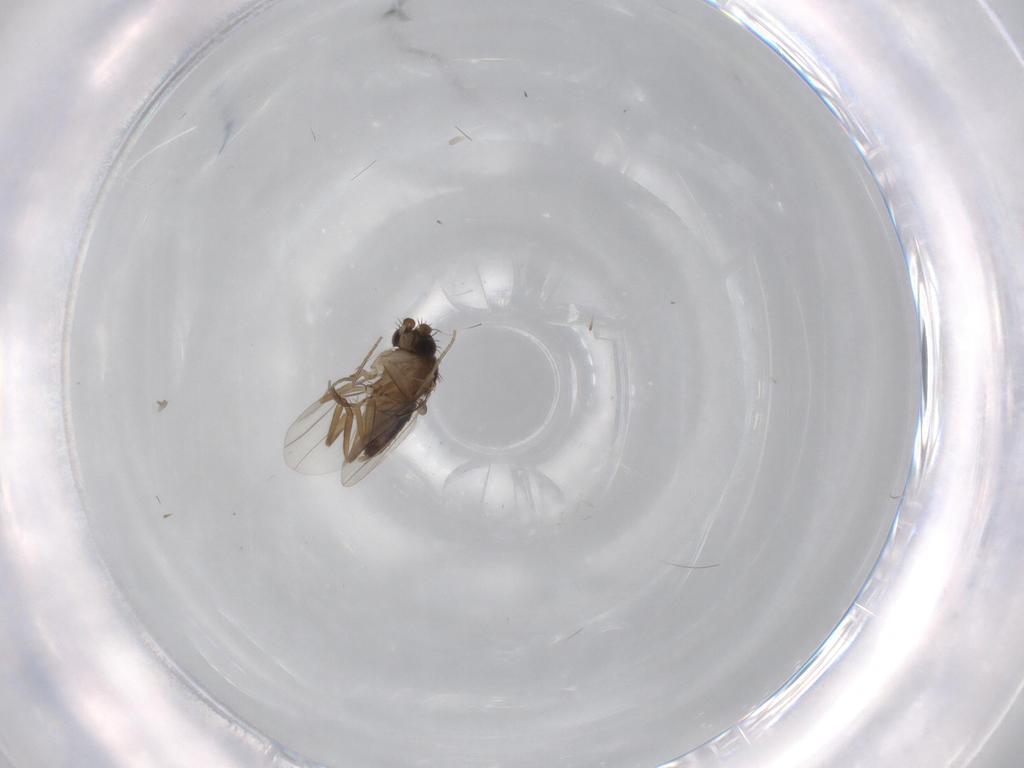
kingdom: Animalia
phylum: Arthropoda
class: Insecta
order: Diptera
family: Phoridae
